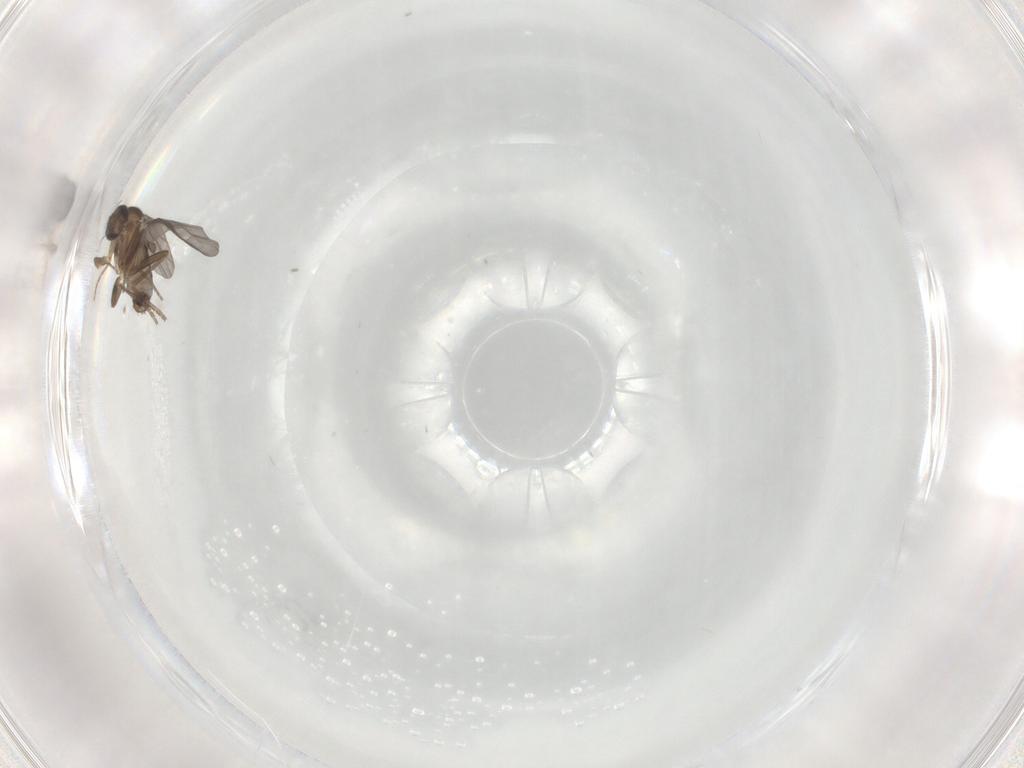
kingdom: Animalia
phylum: Arthropoda
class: Insecta
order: Diptera
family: Phoridae
